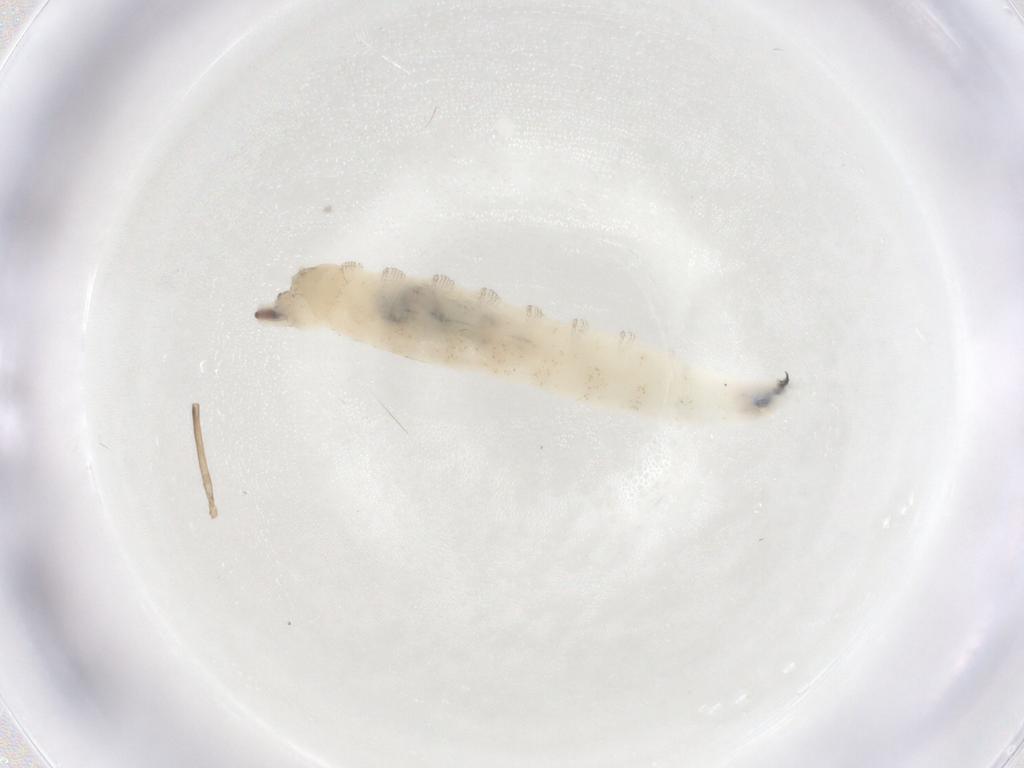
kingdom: Animalia
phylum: Arthropoda
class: Insecta
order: Diptera
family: Drosophilidae
